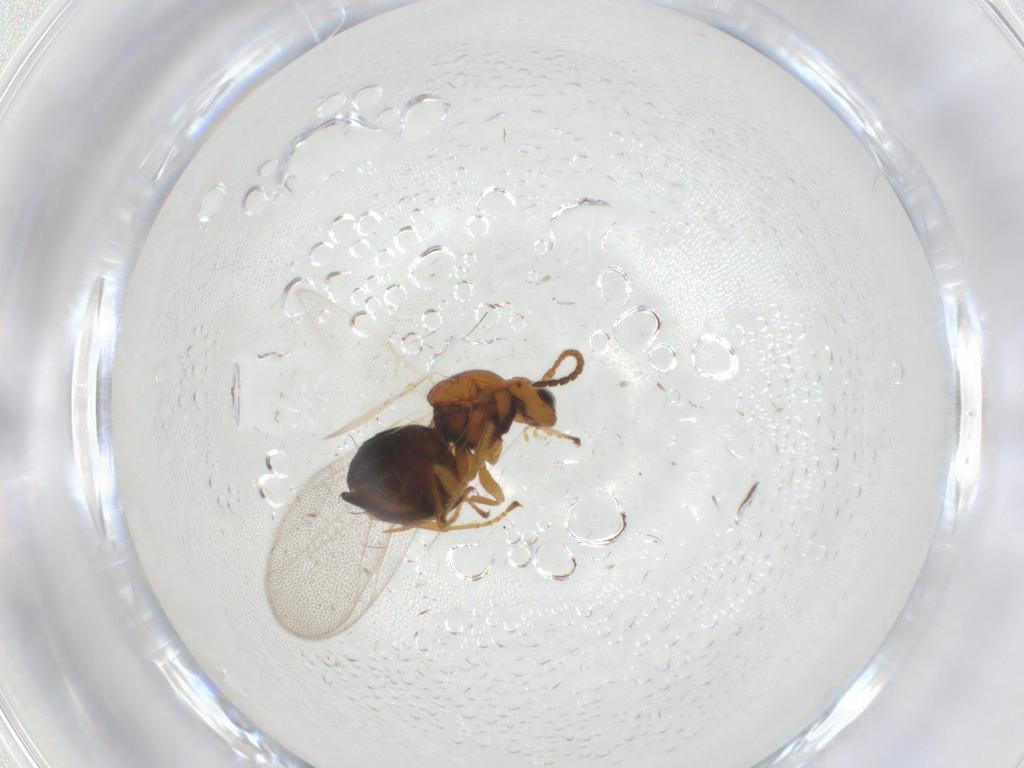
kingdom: Animalia
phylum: Arthropoda
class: Insecta
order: Hymenoptera
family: Cynipidae
